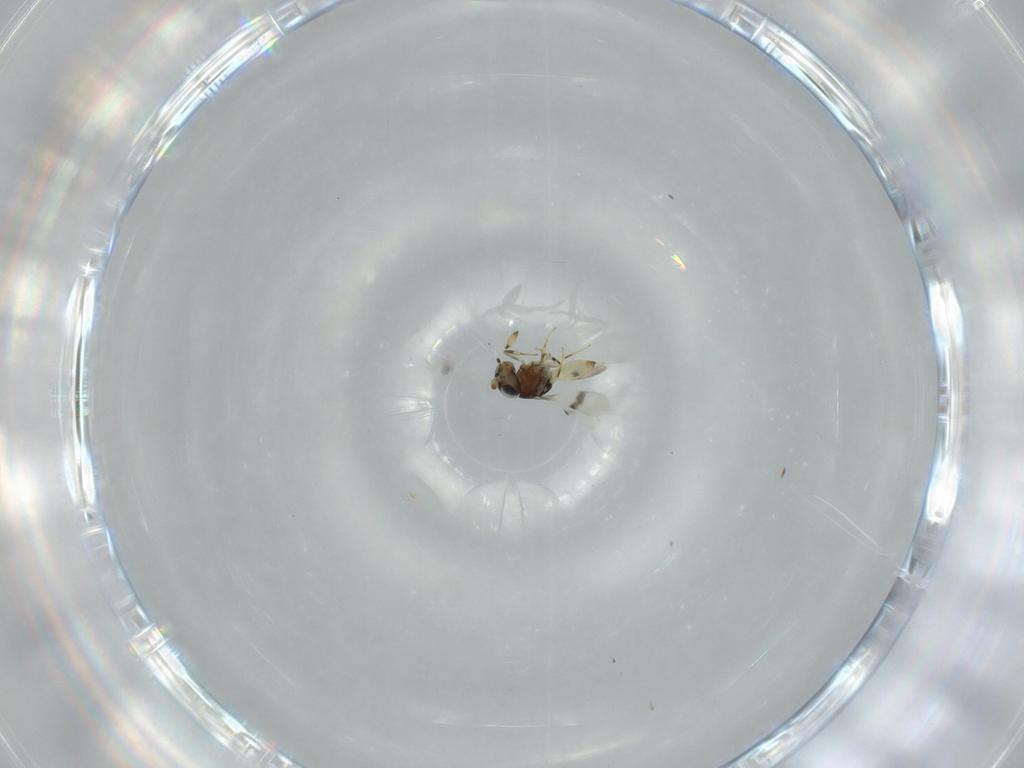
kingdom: Animalia
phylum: Arthropoda
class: Insecta
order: Hymenoptera
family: Scelionidae
